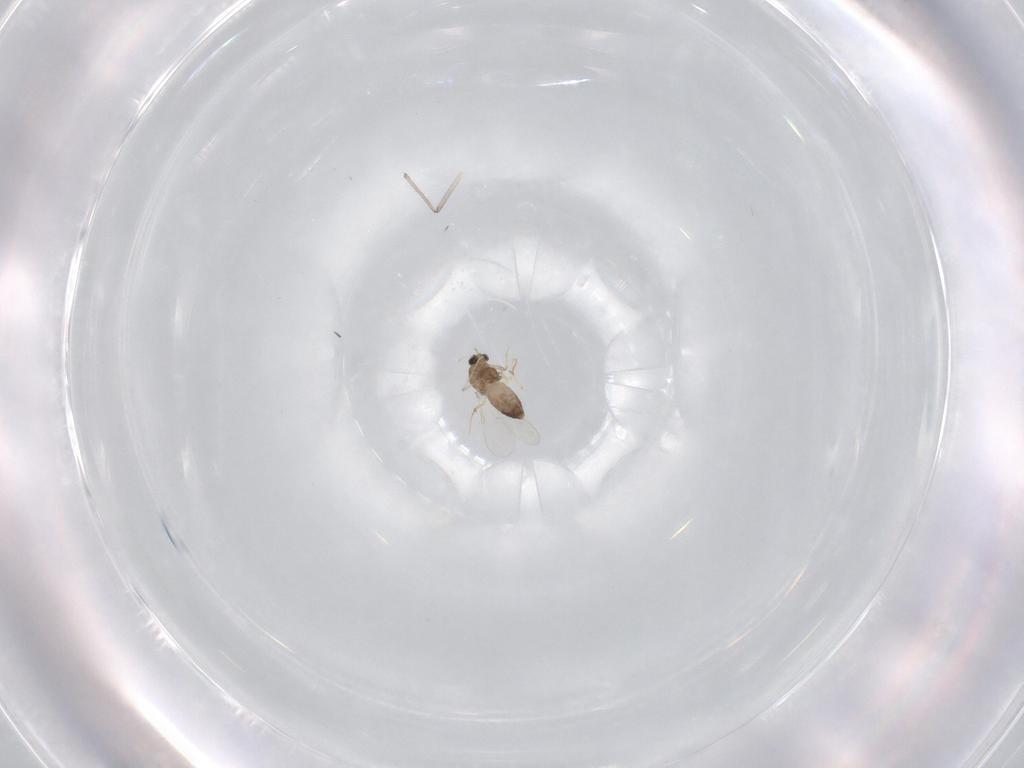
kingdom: Animalia
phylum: Arthropoda
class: Insecta
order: Diptera
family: Chironomidae
